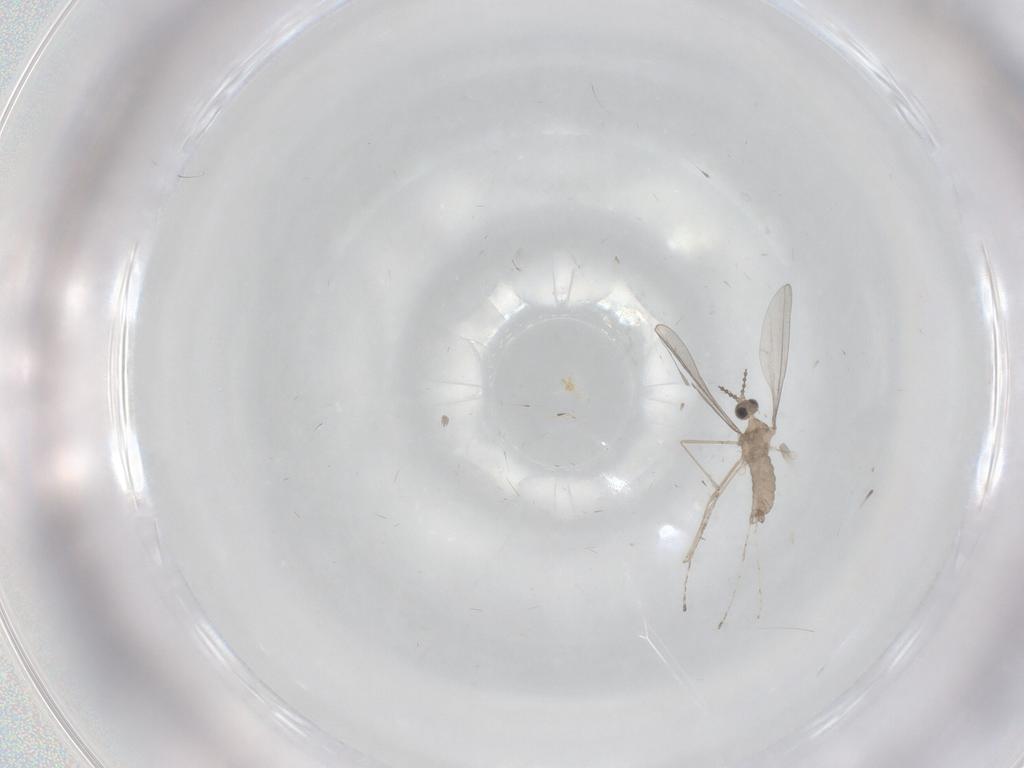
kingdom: Animalia
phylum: Arthropoda
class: Insecta
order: Diptera
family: Cecidomyiidae
